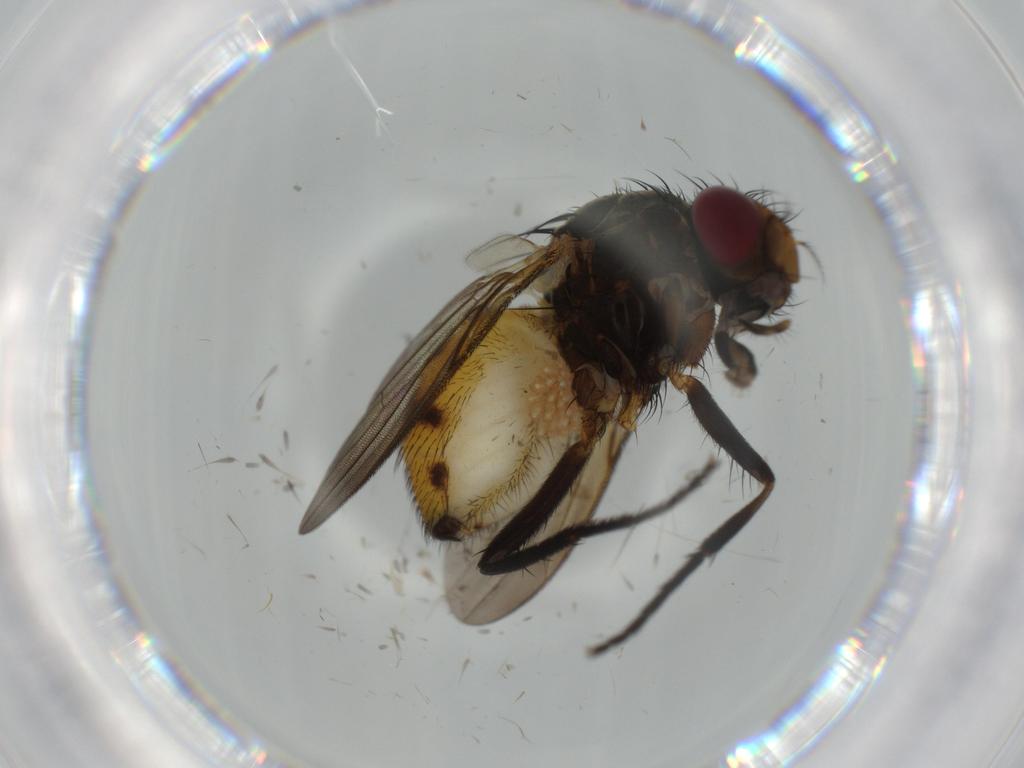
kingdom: Animalia
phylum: Arthropoda
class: Insecta
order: Diptera
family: Anthomyiidae
